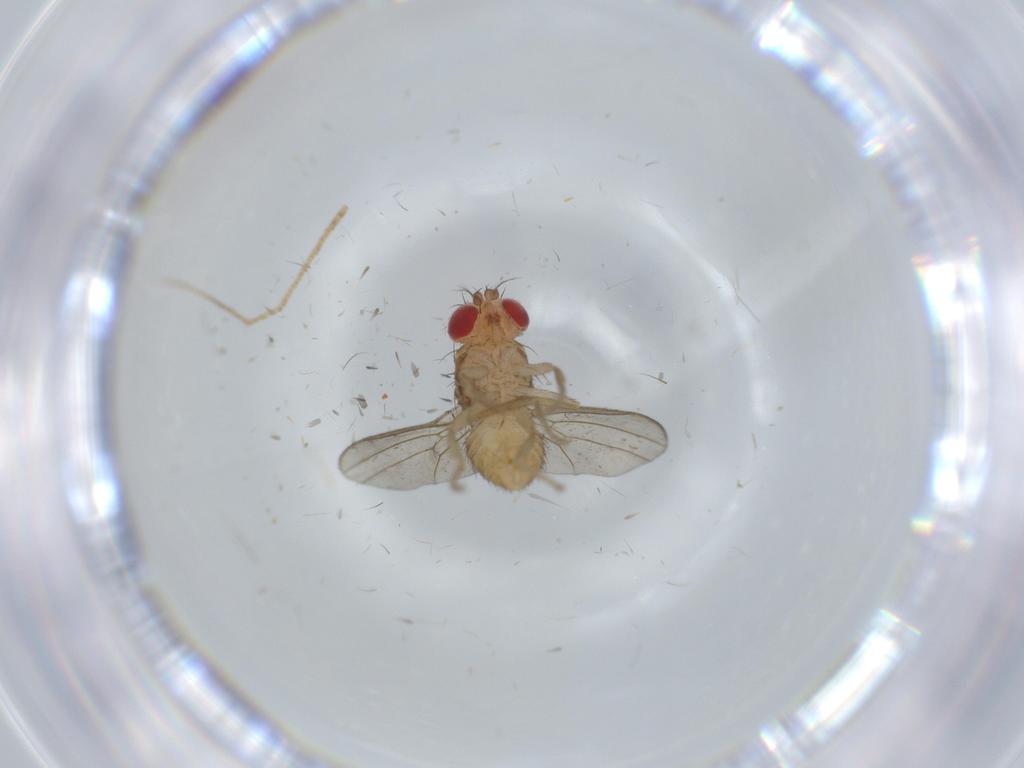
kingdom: Animalia
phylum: Arthropoda
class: Insecta
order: Diptera
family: Drosophilidae
